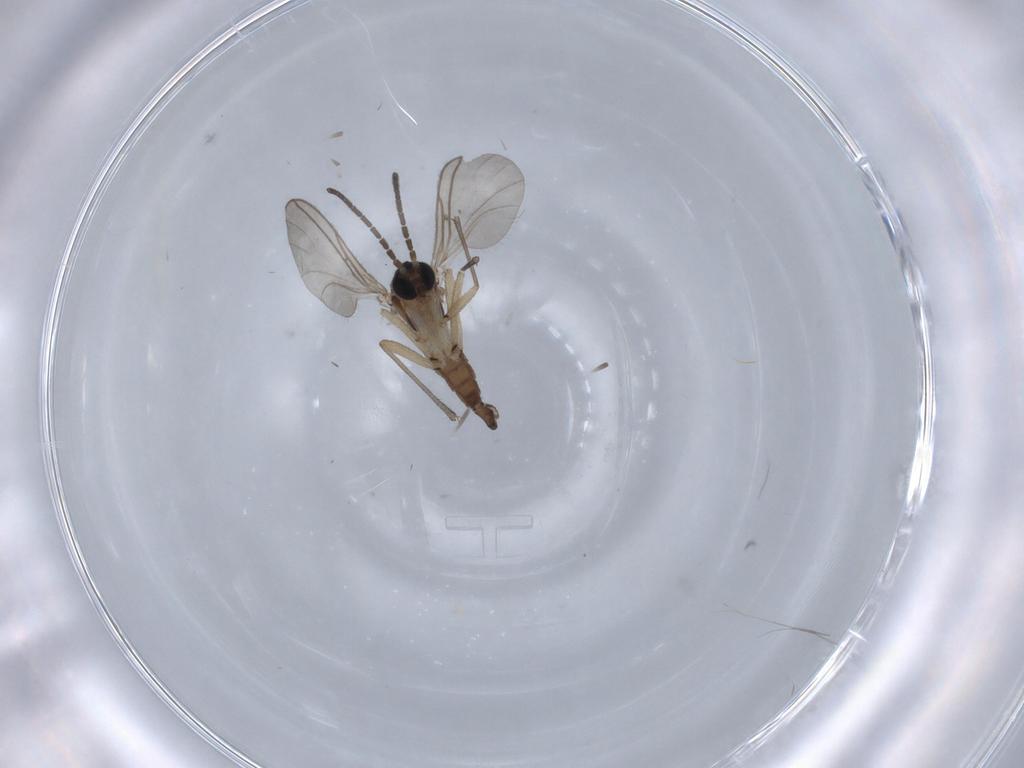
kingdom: Animalia
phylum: Arthropoda
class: Insecta
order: Diptera
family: Sciaridae
